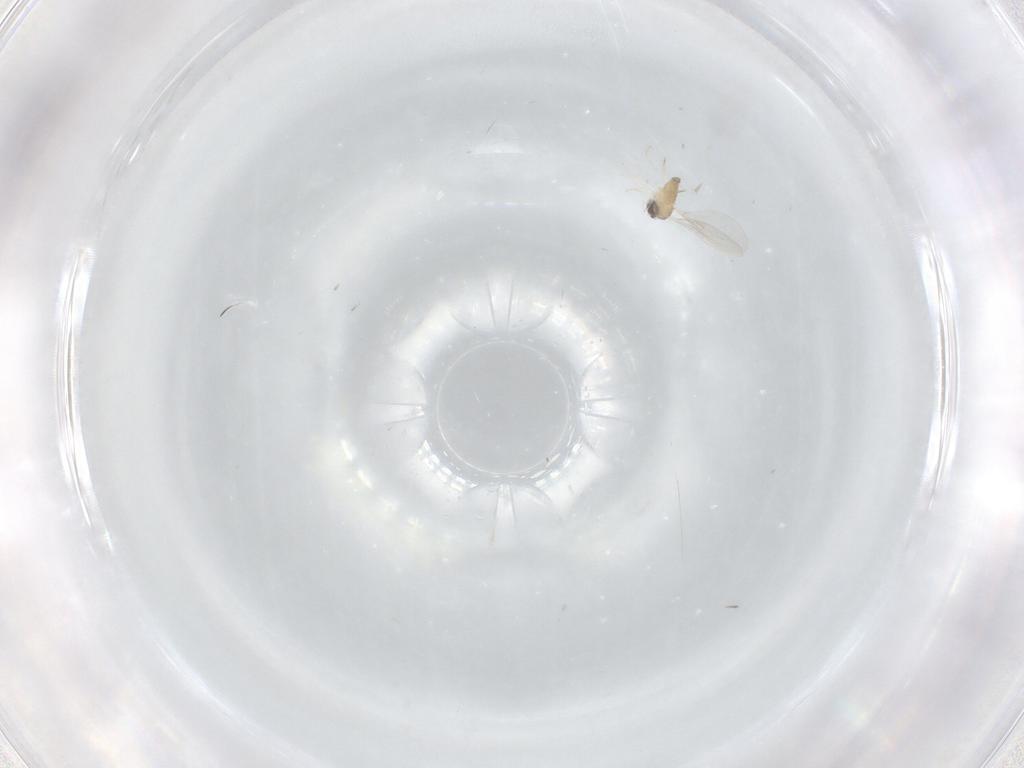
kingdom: Animalia
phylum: Arthropoda
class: Insecta
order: Diptera
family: Cecidomyiidae
